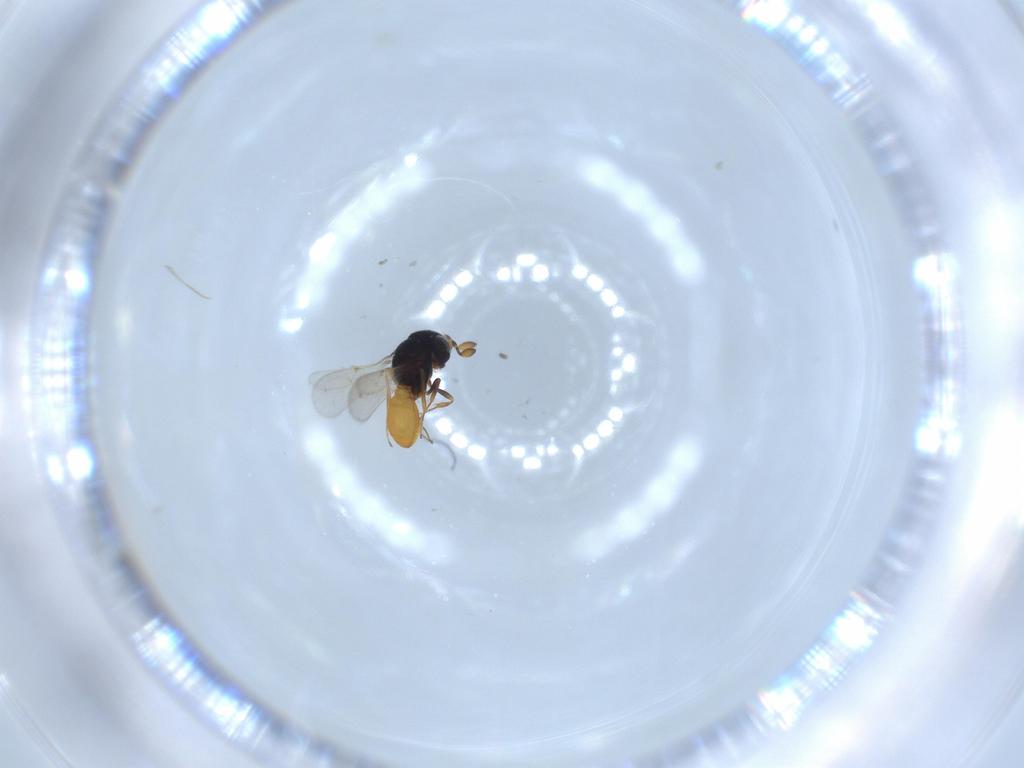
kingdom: Animalia
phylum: Arthropoda
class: Insecta
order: Hymenoptera
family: Scelionidae
